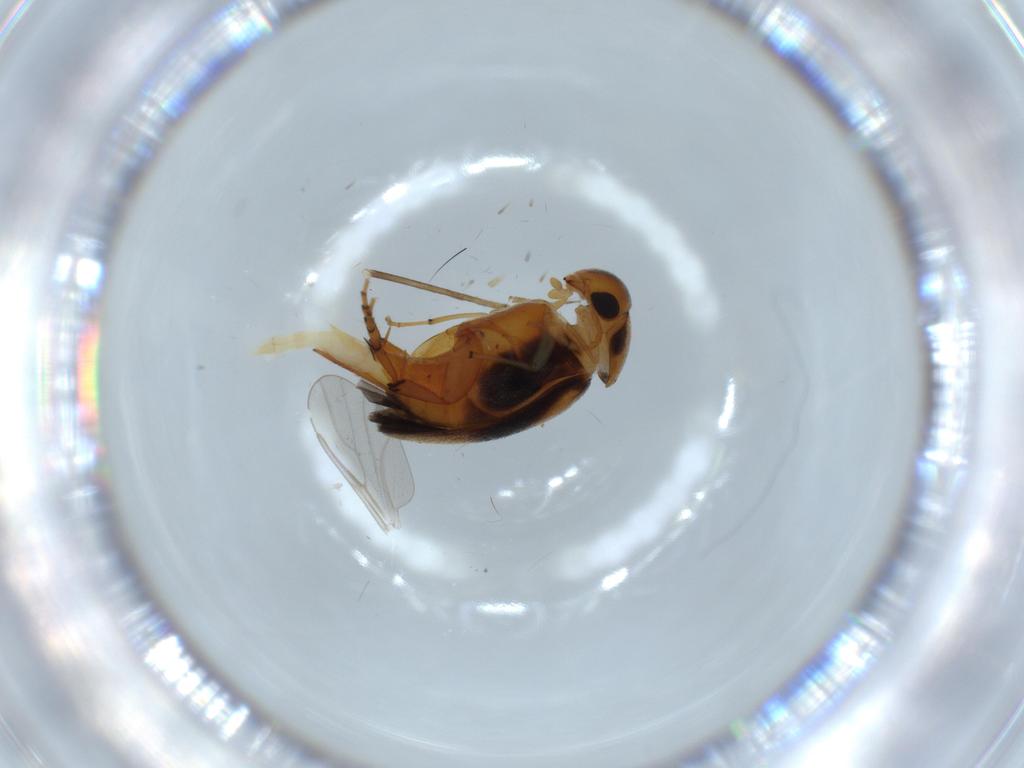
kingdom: Animalia
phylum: Arthropoda
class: Insecta
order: Coleoptera
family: Mordellidae
